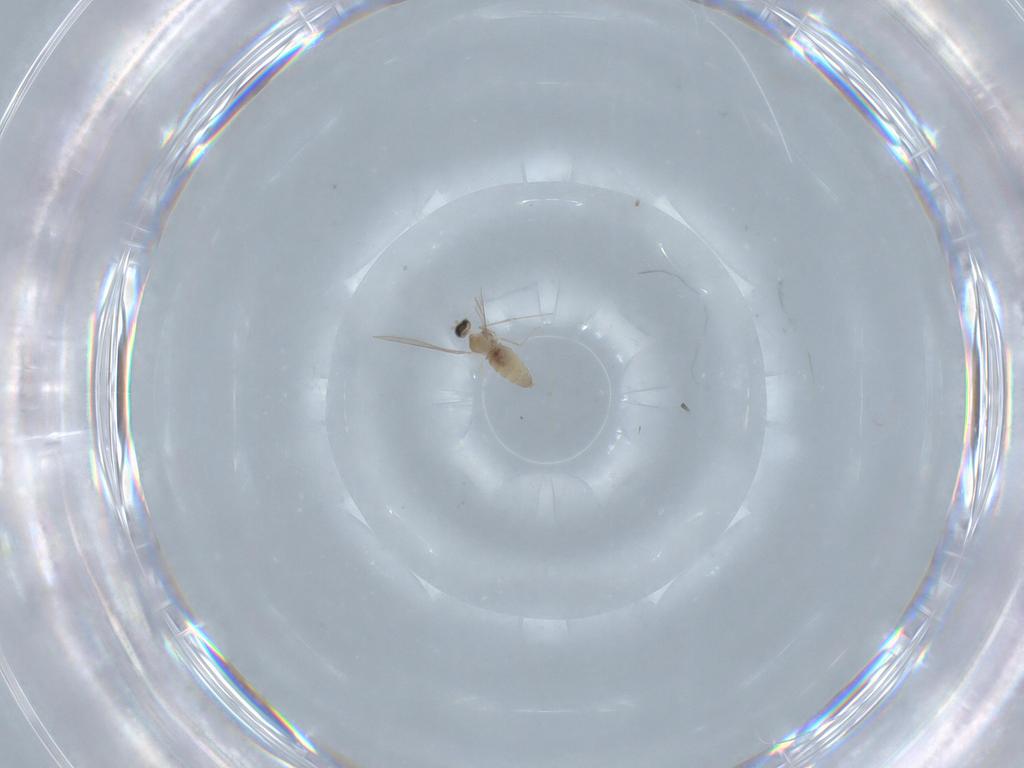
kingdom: Animalia
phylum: Arthropoda
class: Insecta
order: Diptera
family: Cecidomyiidae
